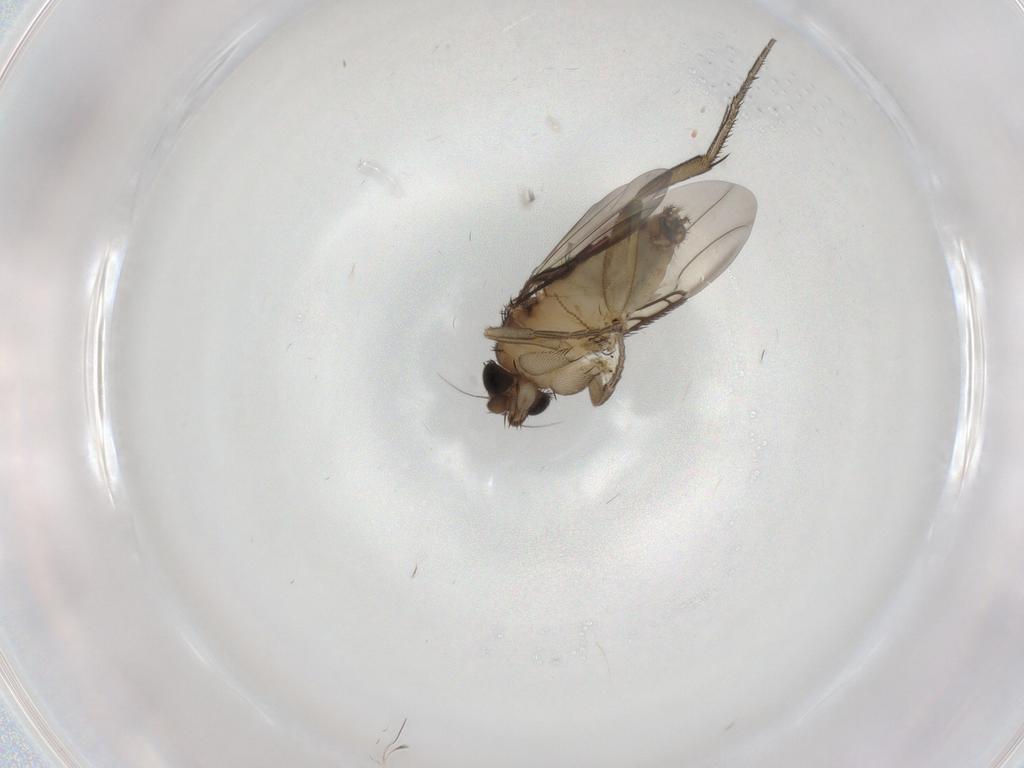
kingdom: Animalia
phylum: Arthropoda
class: Insecta
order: Diptera
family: Phoridae
